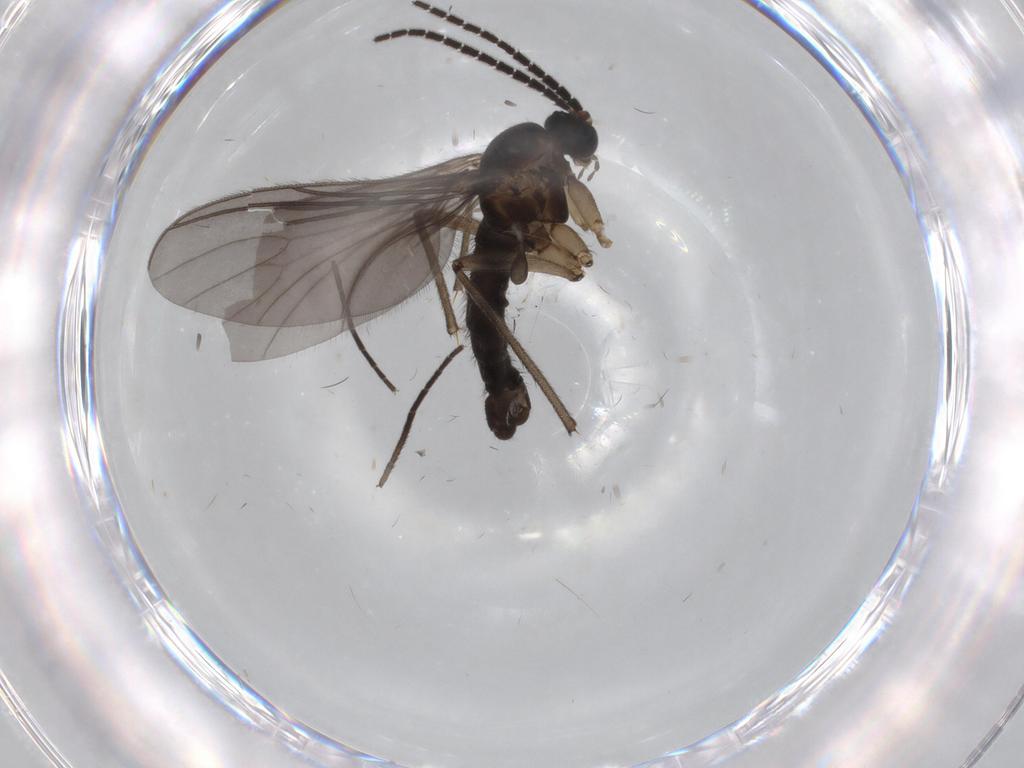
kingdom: Animalia
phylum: Arthropoda
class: Insecta
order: Diptera
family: Sciaridae
